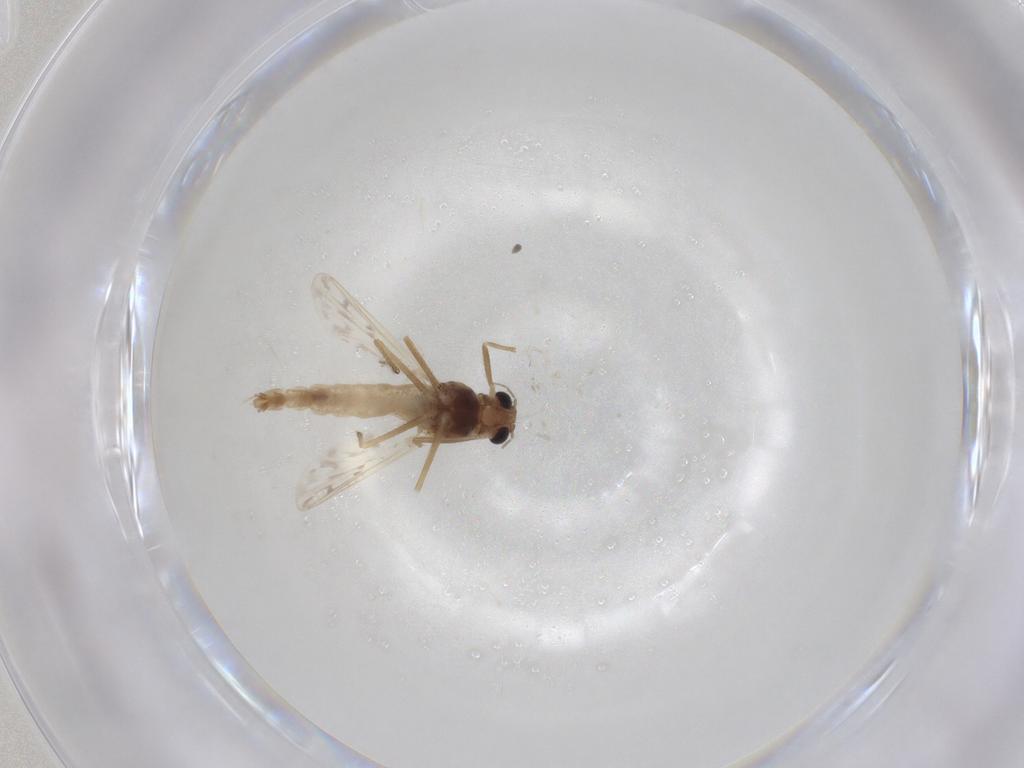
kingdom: Animalia
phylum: Arthropoda
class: Insecta
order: Diptera
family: Chironomidae
